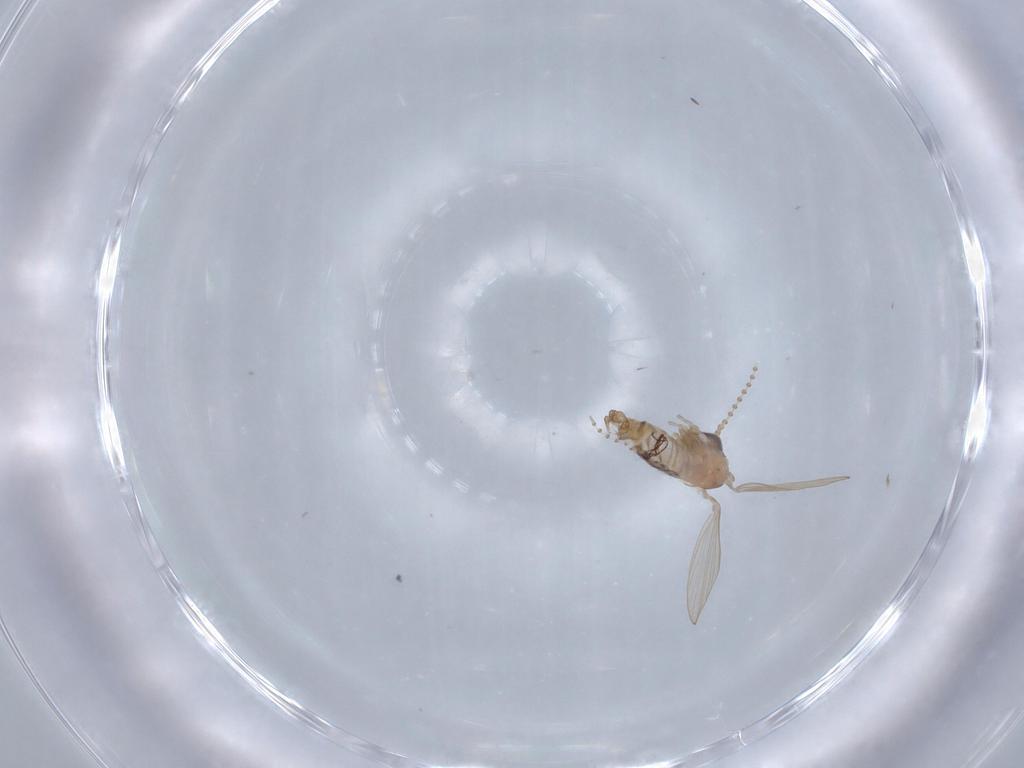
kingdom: Animalia
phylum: Arthropoda
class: Insecta
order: Diptera
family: Psychodidae
